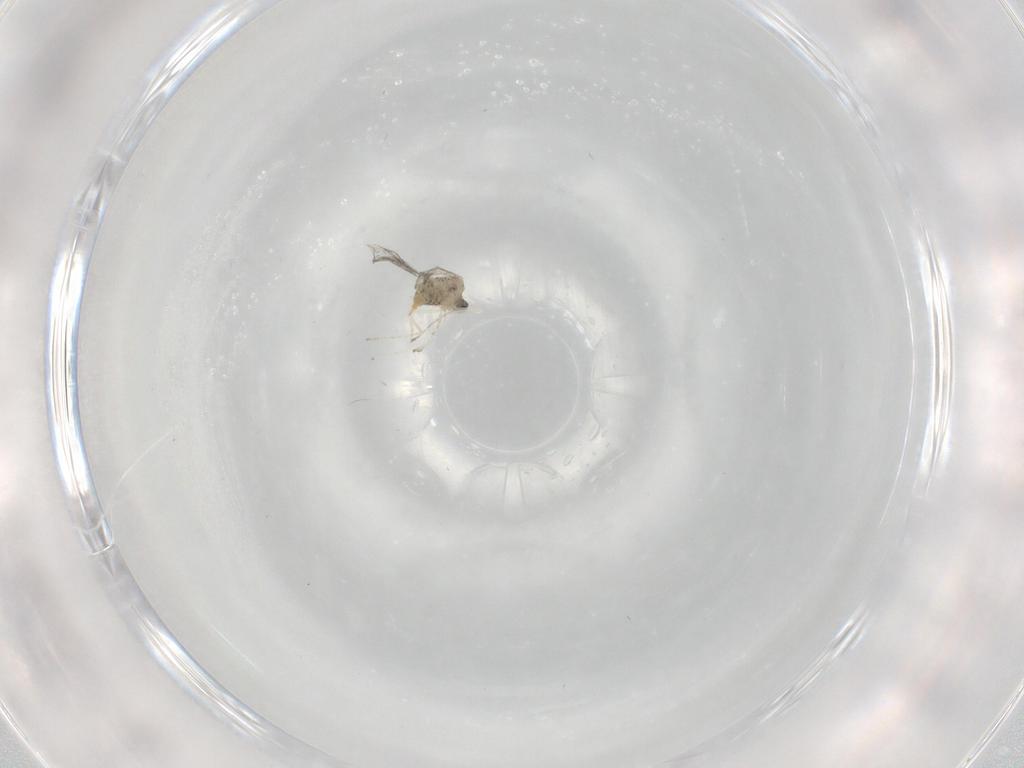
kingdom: Animalia
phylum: Arthropoda
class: Insecta
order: Diptera
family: Cecidomyiidae
